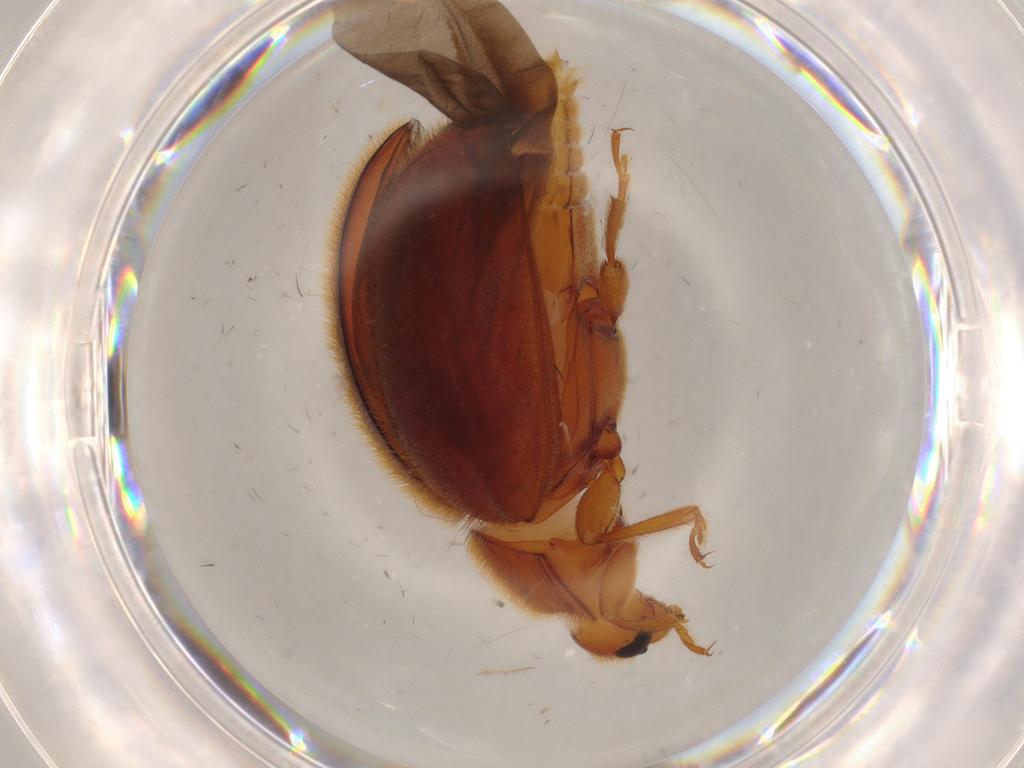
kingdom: Animalia
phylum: Arthropoda
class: Insecta
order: Coleoptera
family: Endomychidae
